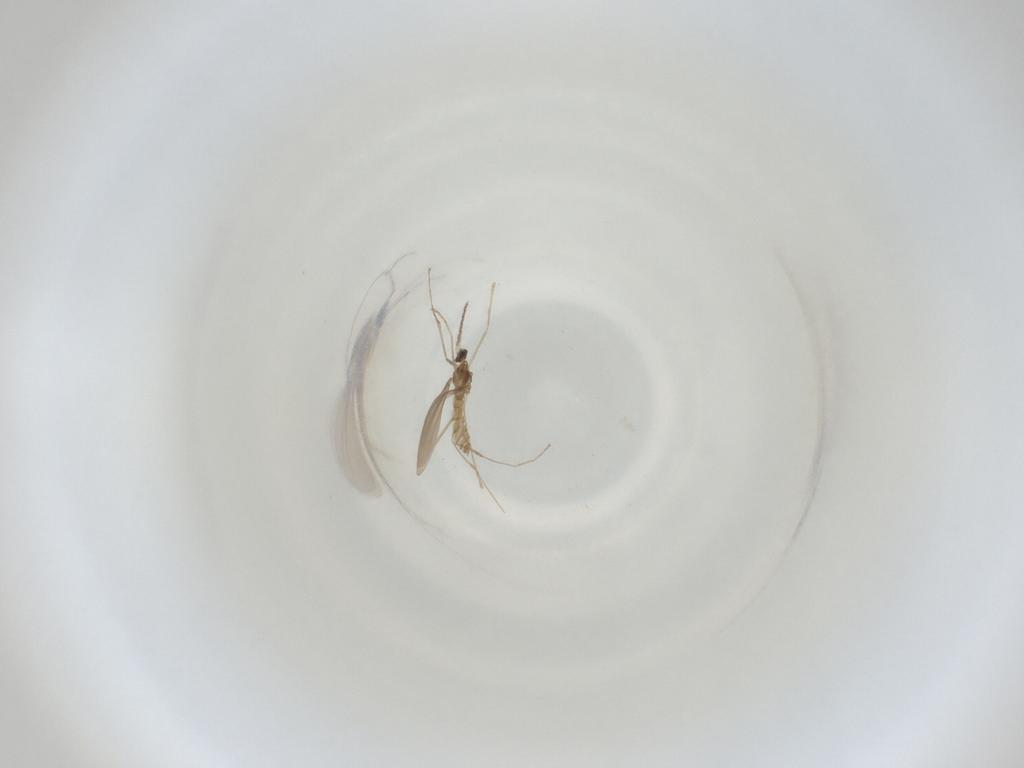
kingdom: Animalia
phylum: Arthropoda
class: Insecta
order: Diptera
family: Cecidomyiidae
